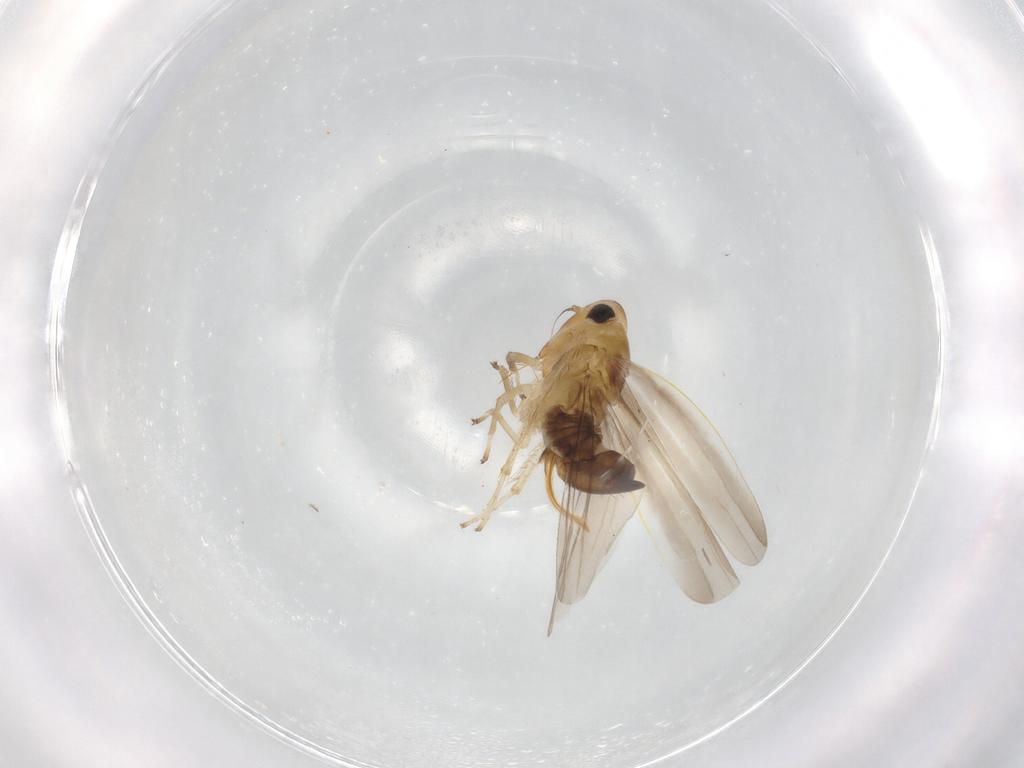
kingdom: Animalia
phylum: Arthropoda
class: Insecta
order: Hemiptera
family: Cicadellidae
